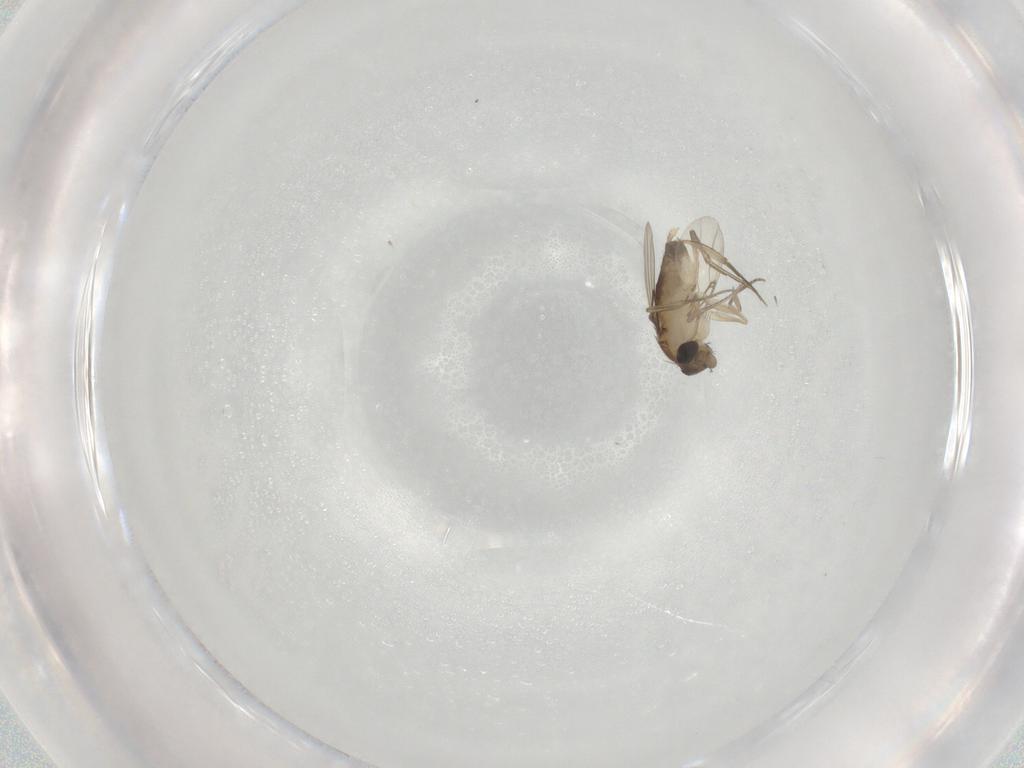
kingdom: Animalia
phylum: Arthropoda
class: Insecta
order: Diptera
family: Phoridae
